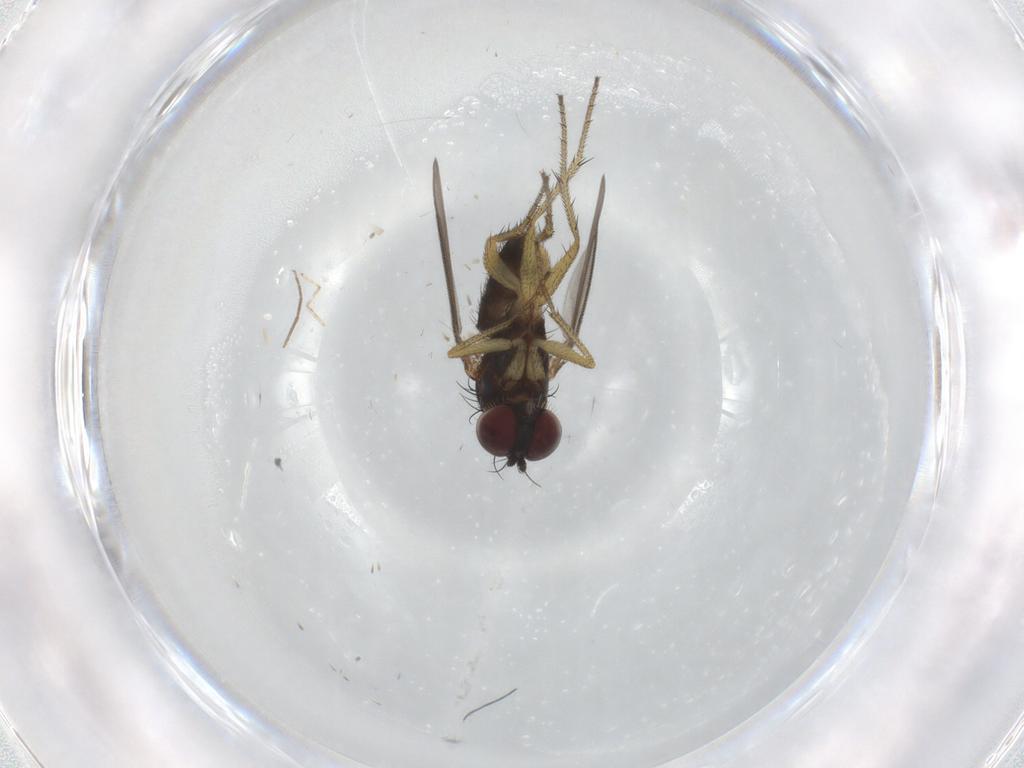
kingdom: Animalia
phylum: Arthropoda
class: Insecta
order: Diptera
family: Dolichopodidae
